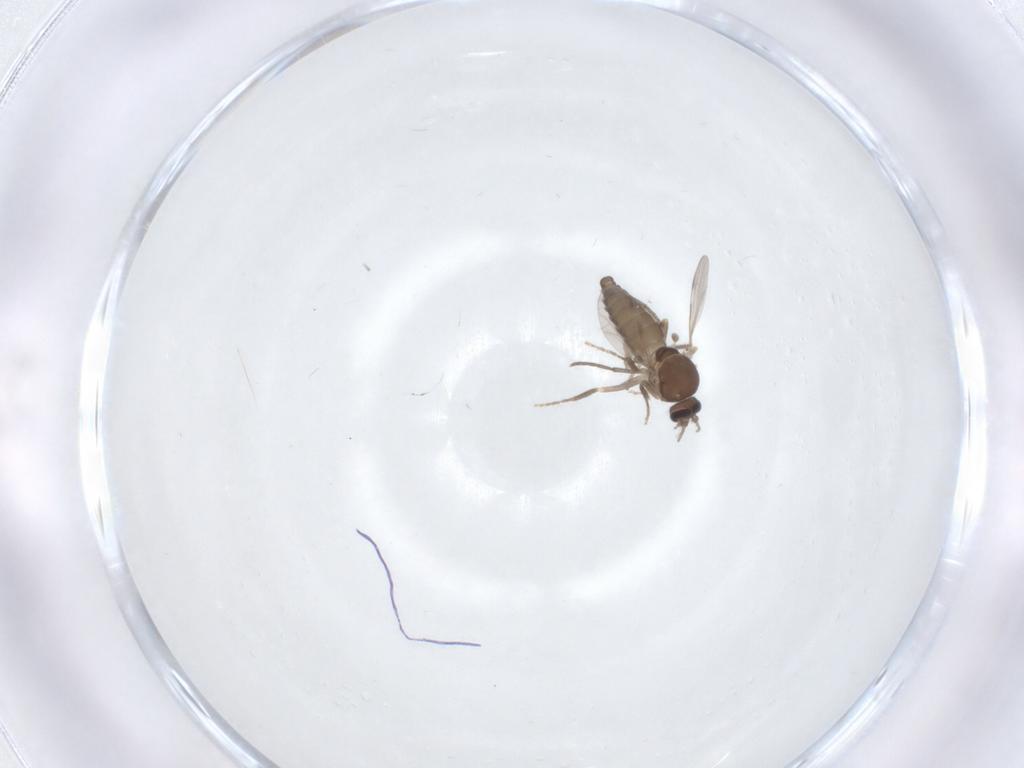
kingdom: Animalia
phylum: Arthropoda
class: Insecta
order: Diptera
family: Ceratopogonidae
